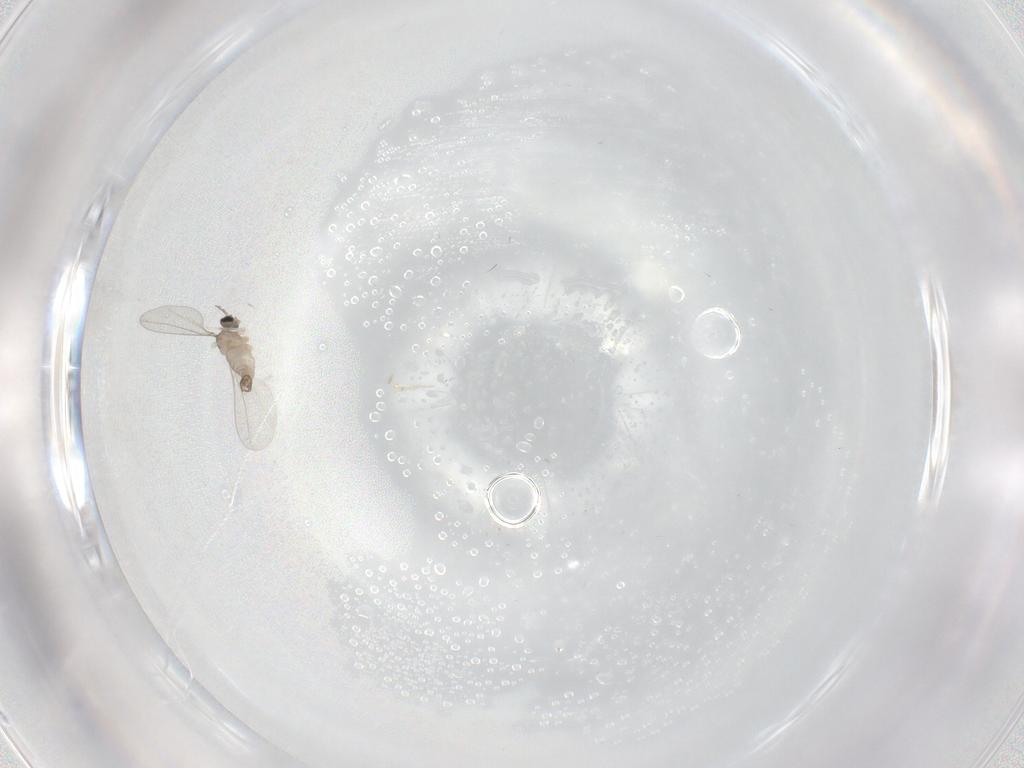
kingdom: Animalia
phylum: Arthropoda
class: Insecta
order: Diptera
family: Cecidomyiidae
